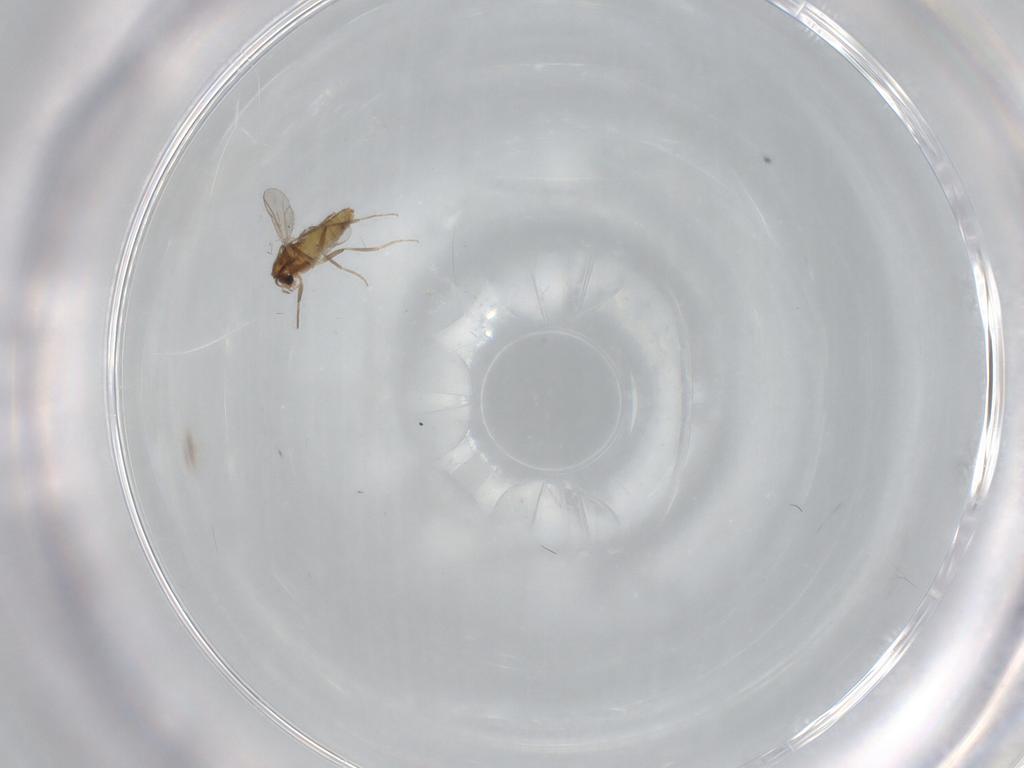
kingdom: Animalia
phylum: Arthropoda
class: Insecta
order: Diptera
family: Chironomidae
